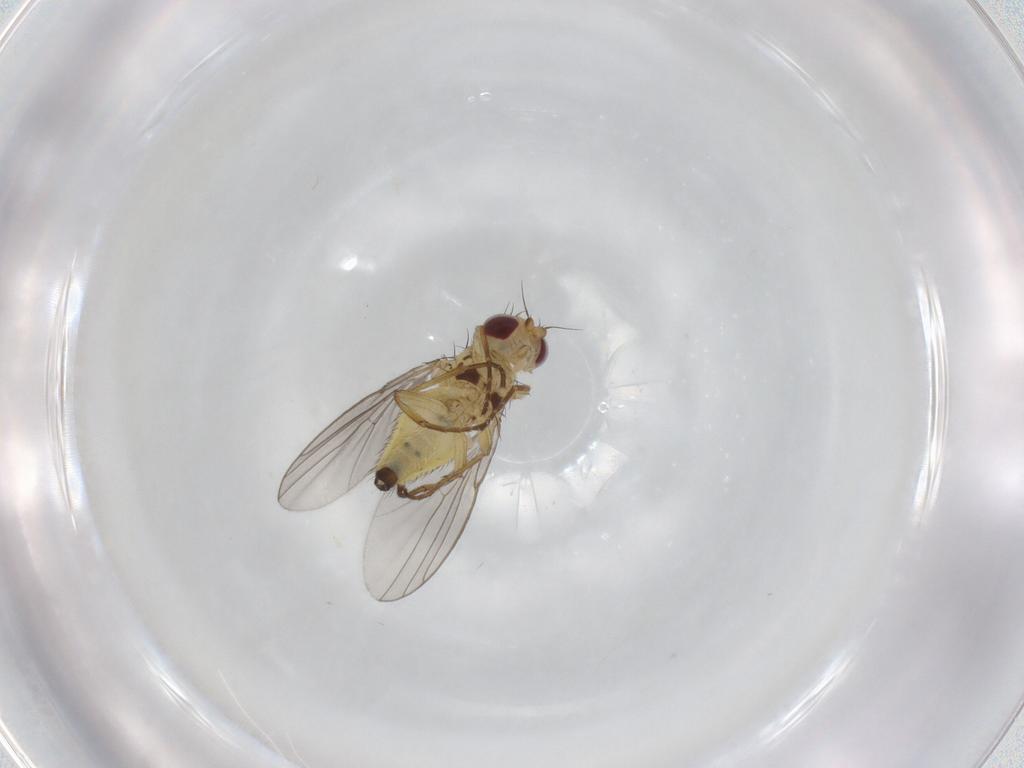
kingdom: Animalia
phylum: Arthropoda
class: Insecta
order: Diptera
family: Agromyzidae
